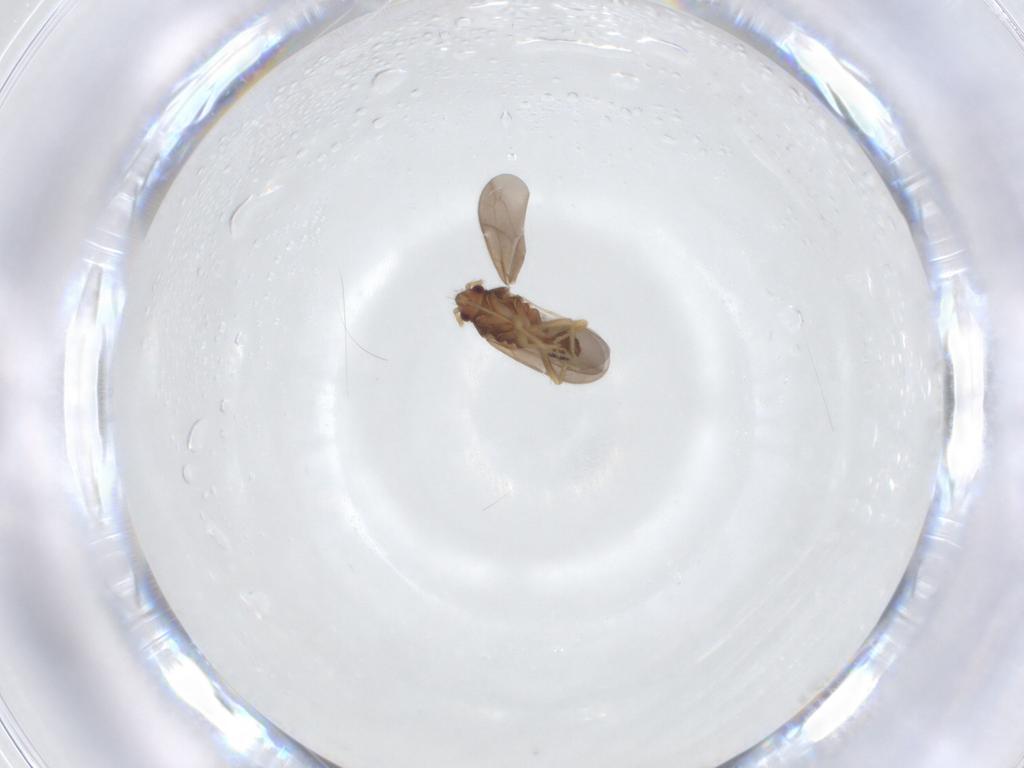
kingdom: Animalia
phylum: Arthropoda
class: Insecta
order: Hemiptera
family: Ceratocombidae
